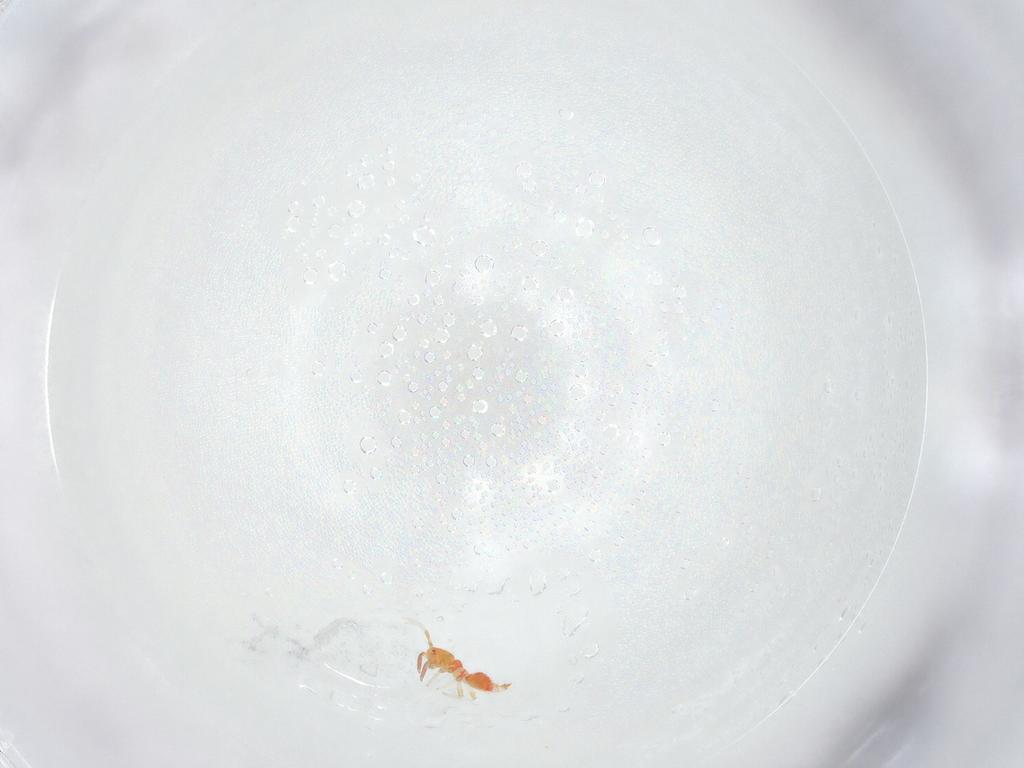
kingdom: Animalia
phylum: Arthropoda
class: Insecta
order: Thysanoptera
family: Aeolothripidae
